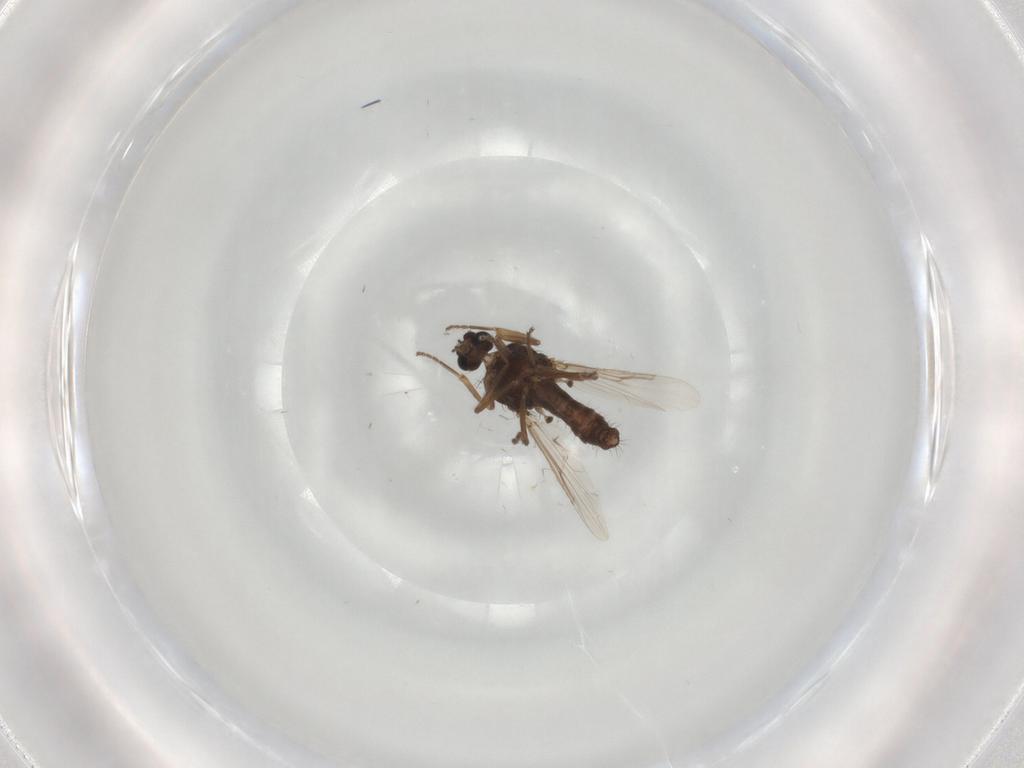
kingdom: Animalia
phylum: Arthropoda
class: Insecta
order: Diptera
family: Ceratopogonidae
